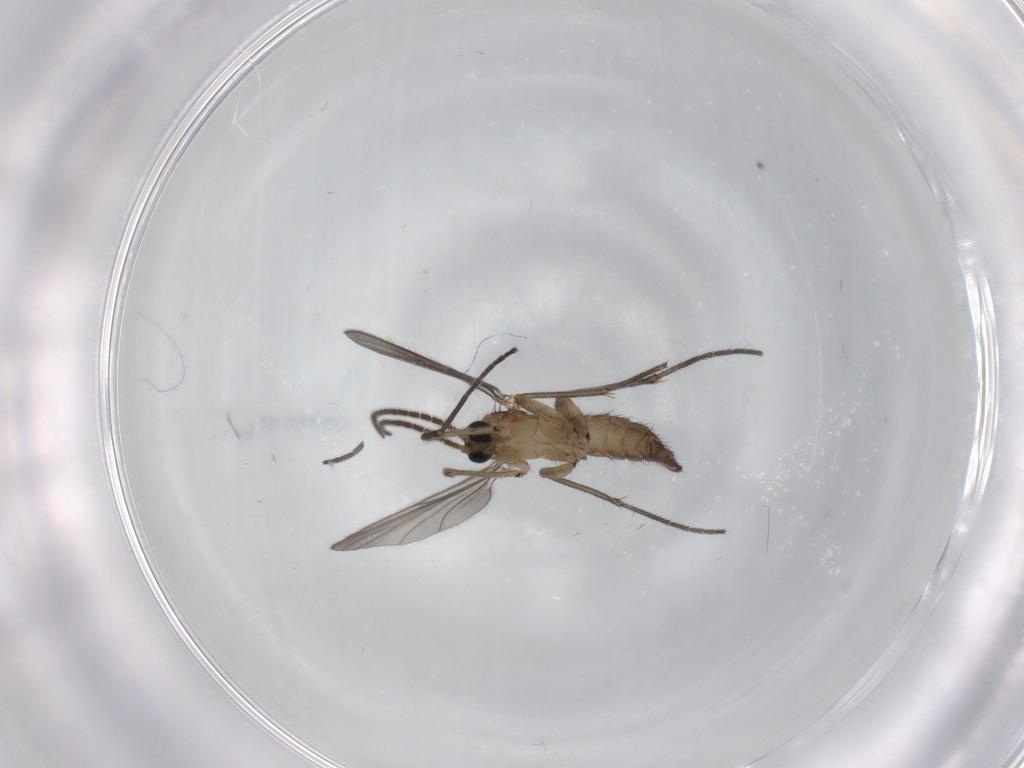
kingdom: Animalia
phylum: Arthropoda
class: Insecta
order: Diptera
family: Sciaridae
